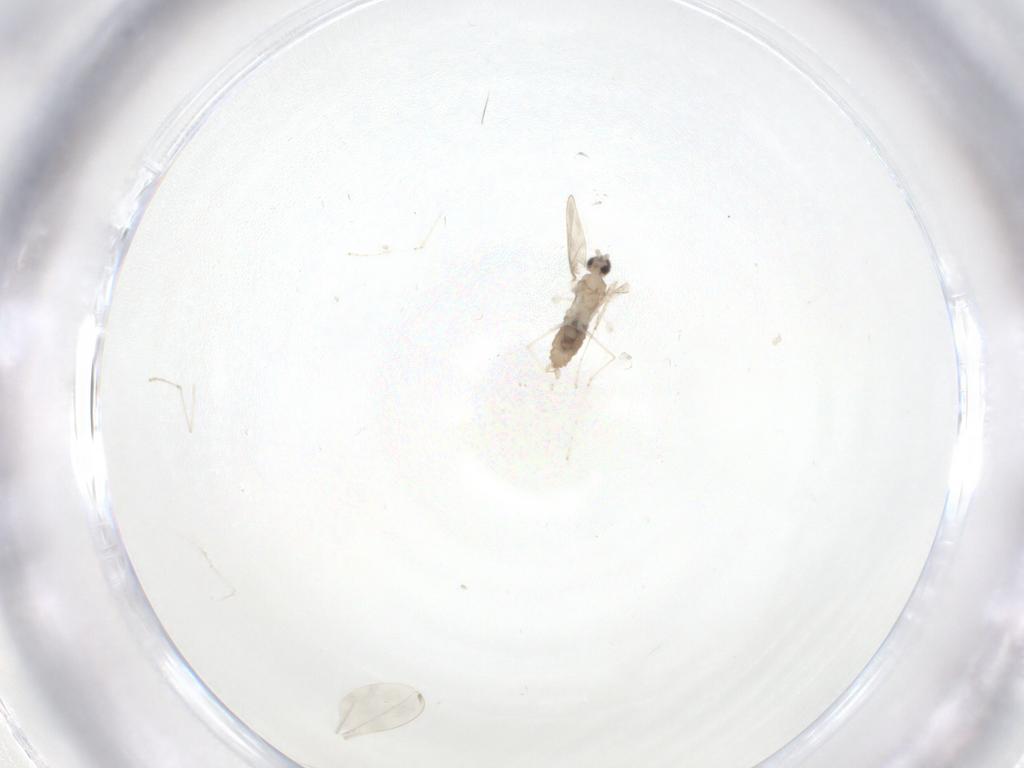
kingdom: Animalia
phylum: Arthropoda
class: Insecta
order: Diptera
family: Cecidomyiidae
